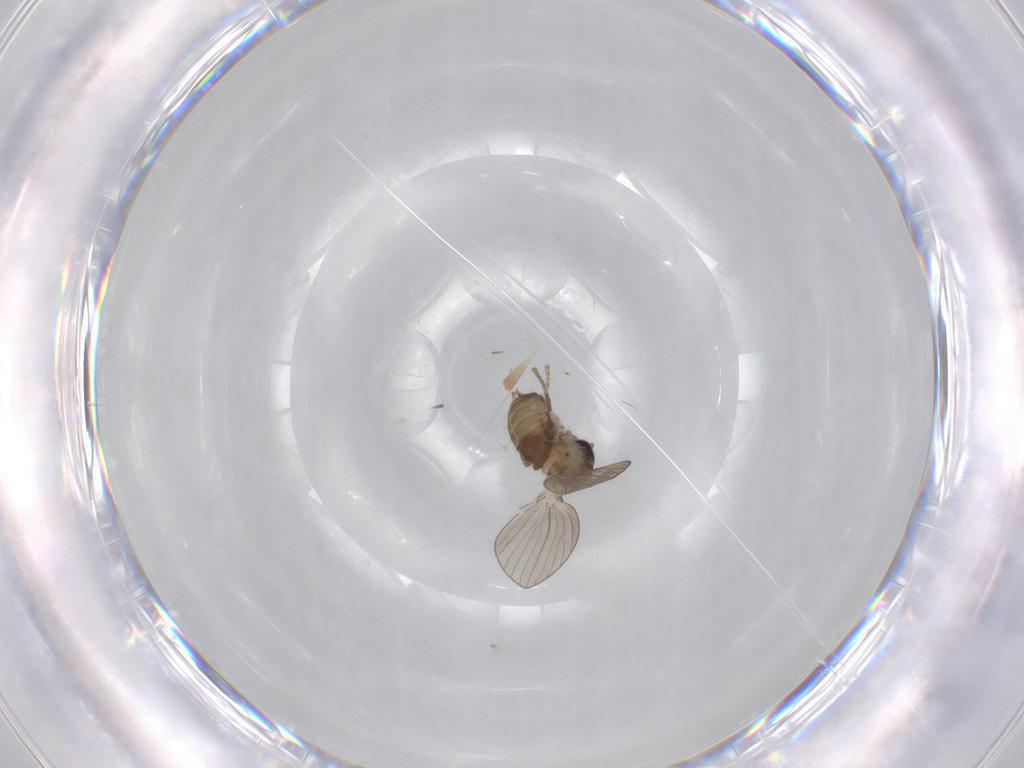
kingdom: Animalia
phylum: Arthropoda
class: Insecta
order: Diptera
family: Psychodidae
